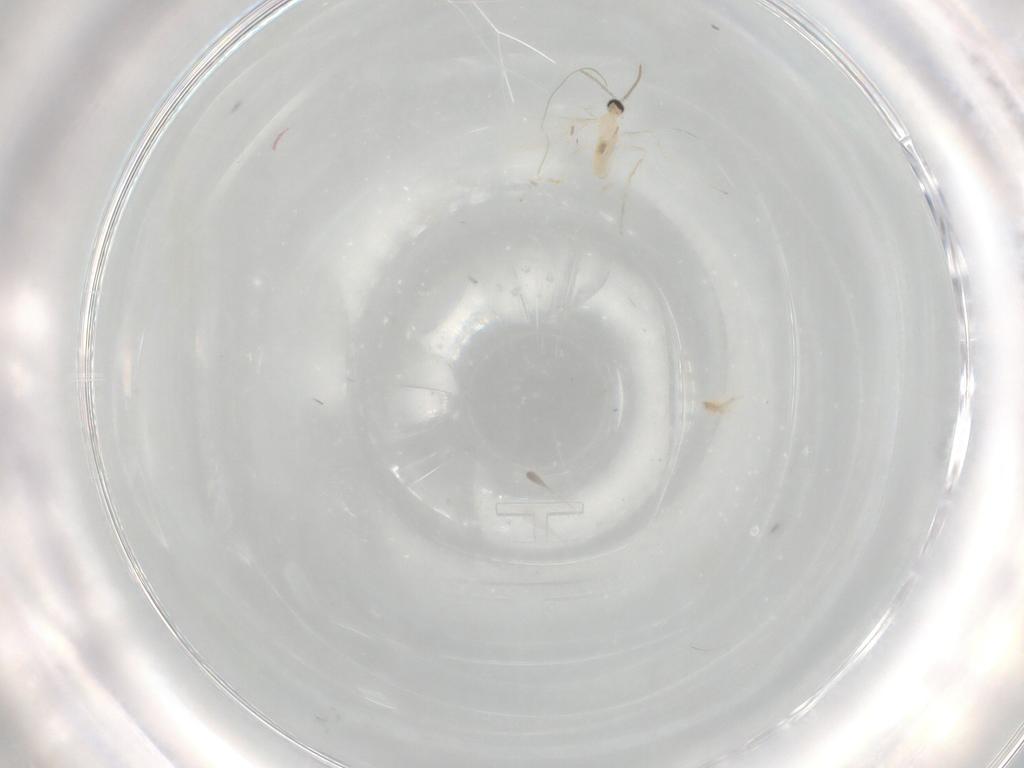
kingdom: Animalia
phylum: Arthropoda
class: Insecta
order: Diptera
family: Cecidomyiidae
